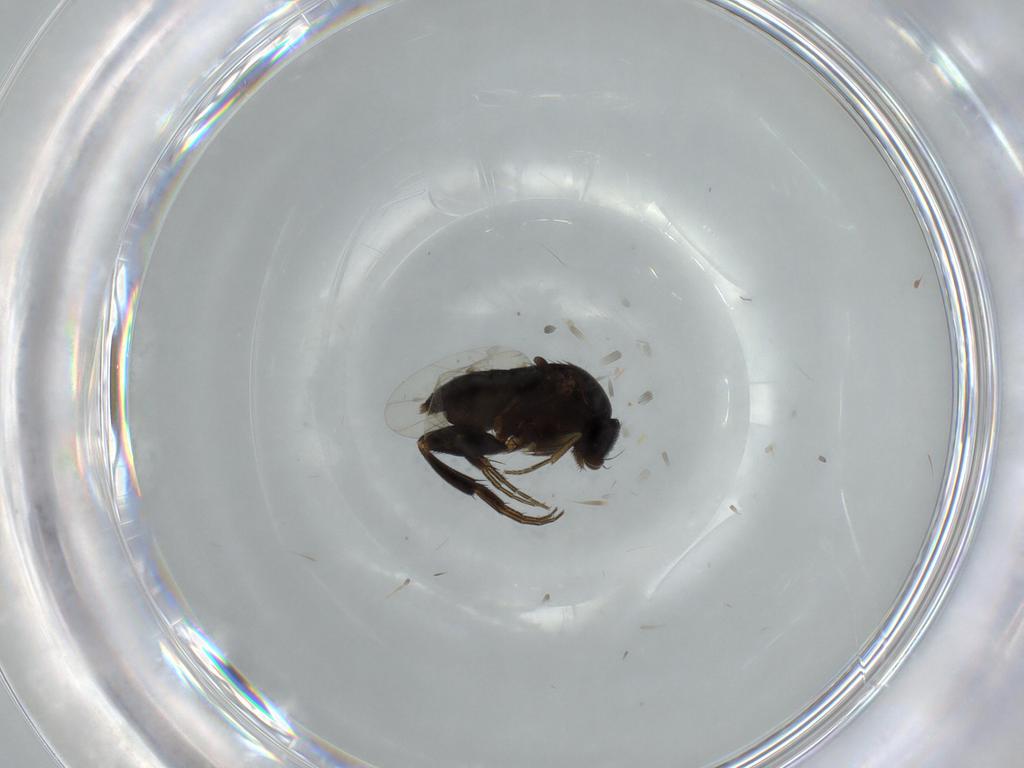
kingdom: Animalia
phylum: Arthropoda
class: Insecta
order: Diptera
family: Phoridae
